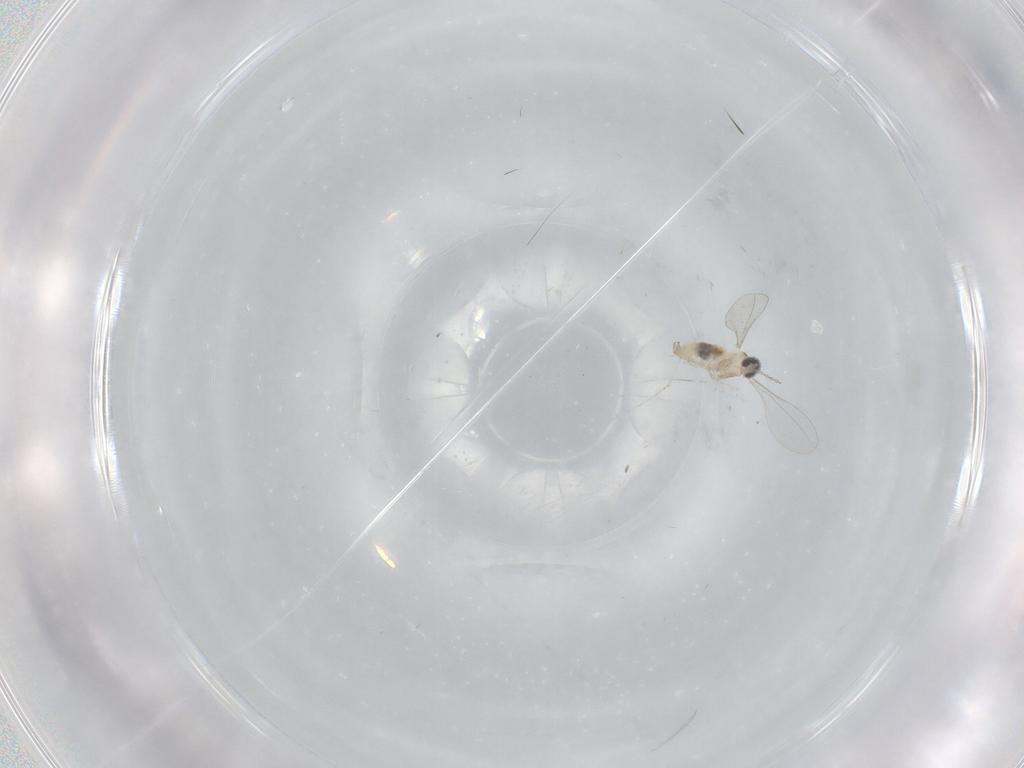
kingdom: Animalia
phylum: Arthropoda
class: Insecta
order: Diptera
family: Cecidomyiidae
